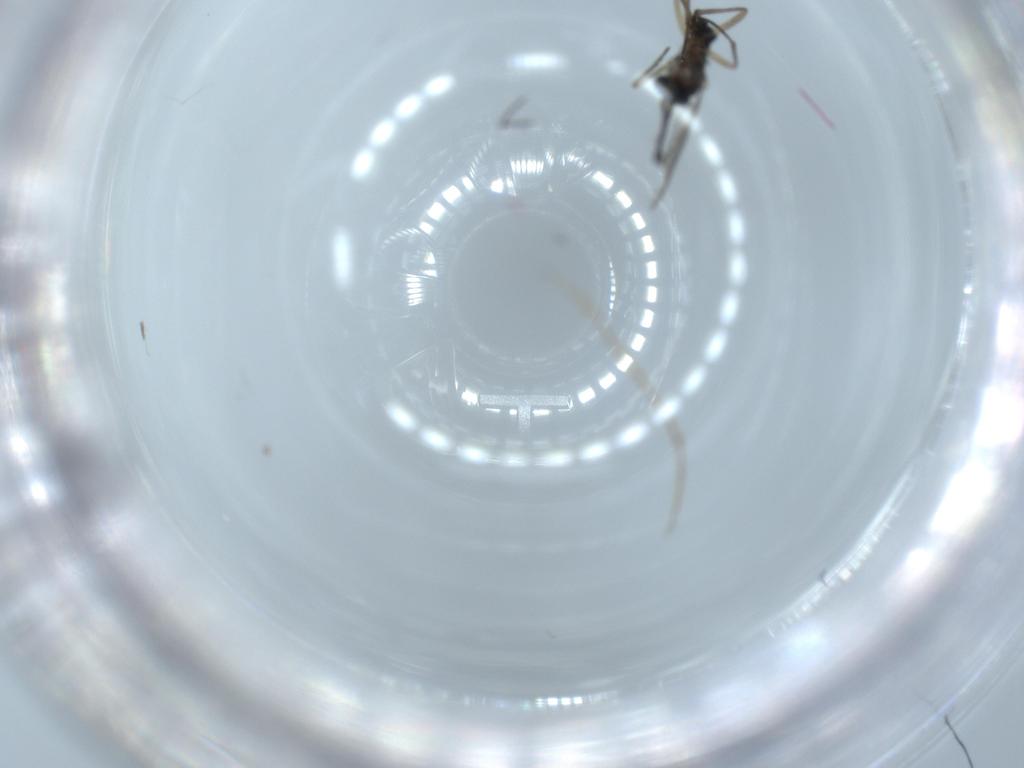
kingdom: Animalia
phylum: Arthropoda
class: Insecta
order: Diptera
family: Sciaridae
